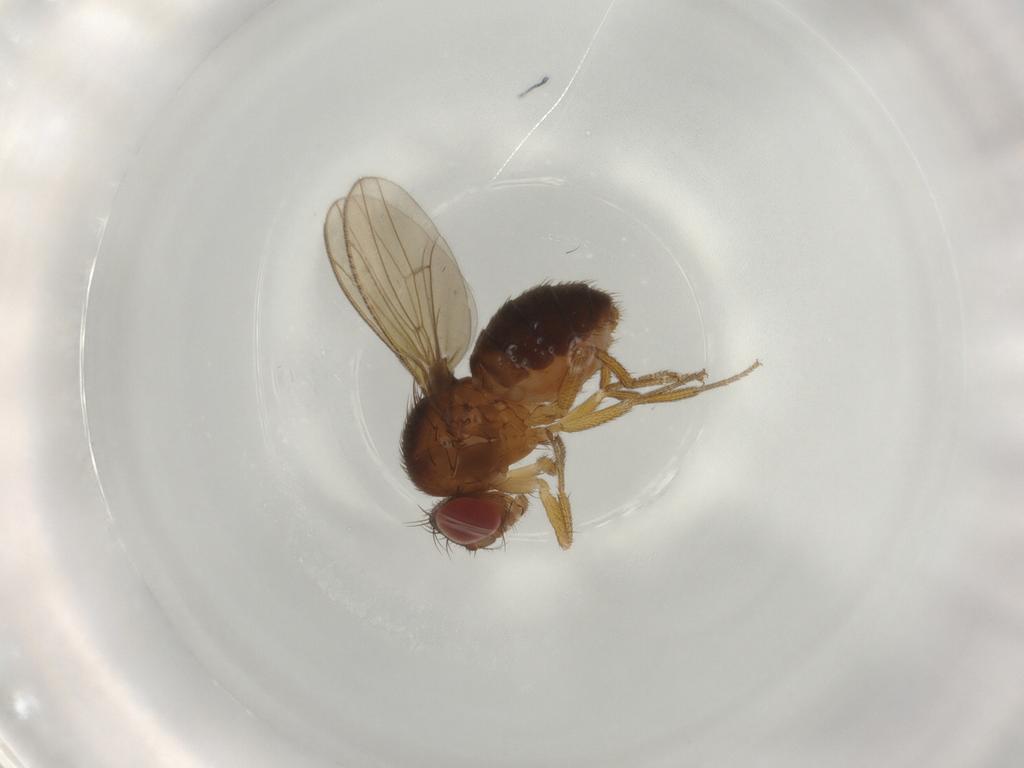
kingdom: Animalia
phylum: Arthropoda
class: Insecta
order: Diptera
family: Drosophilidae
